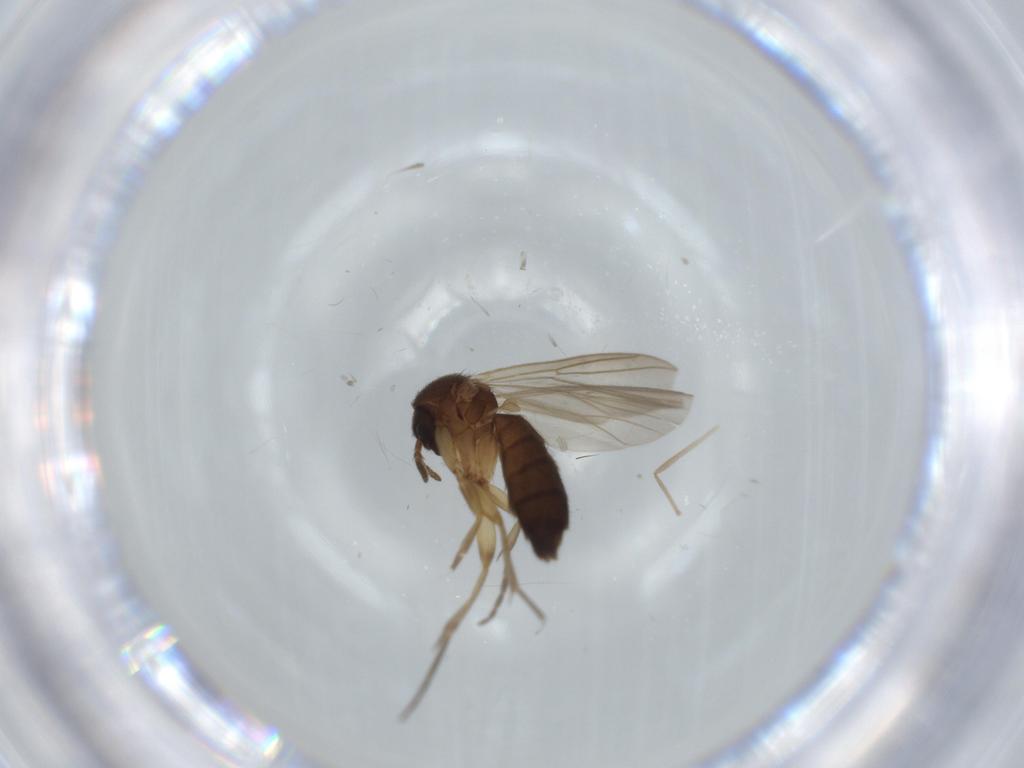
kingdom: Animalia
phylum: Arthropoda
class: Insecta
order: Diptera
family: Mycetophilidae
